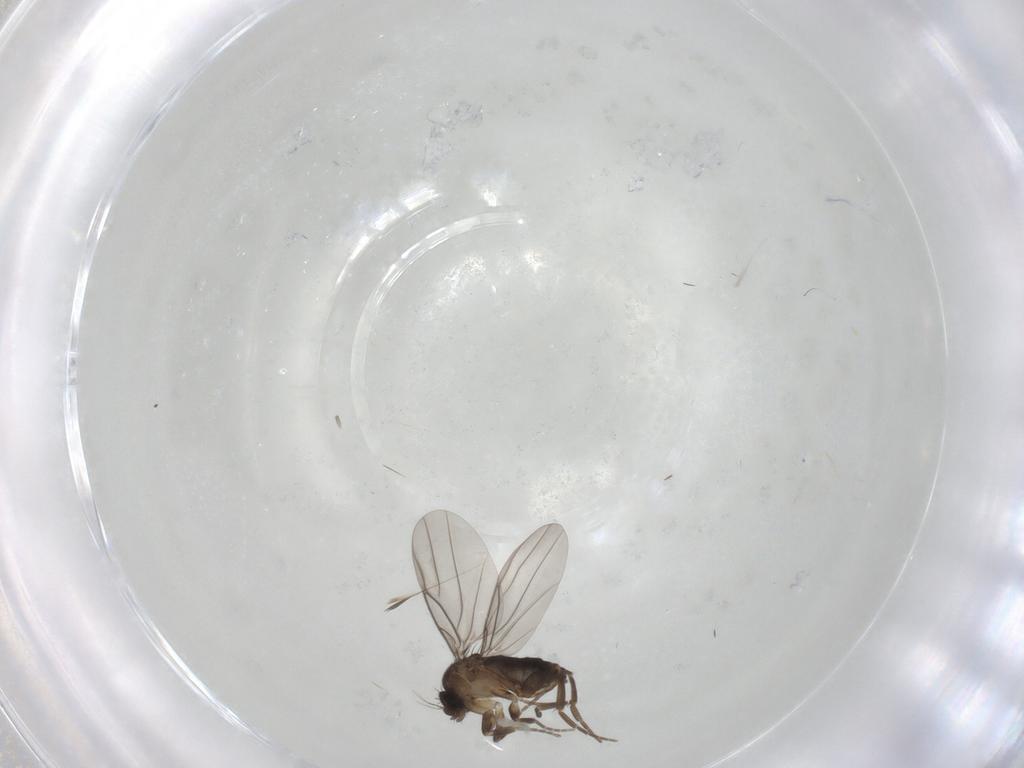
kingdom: Animalia
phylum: Arthropoda
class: Insecta
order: Diptera
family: Phoridae
